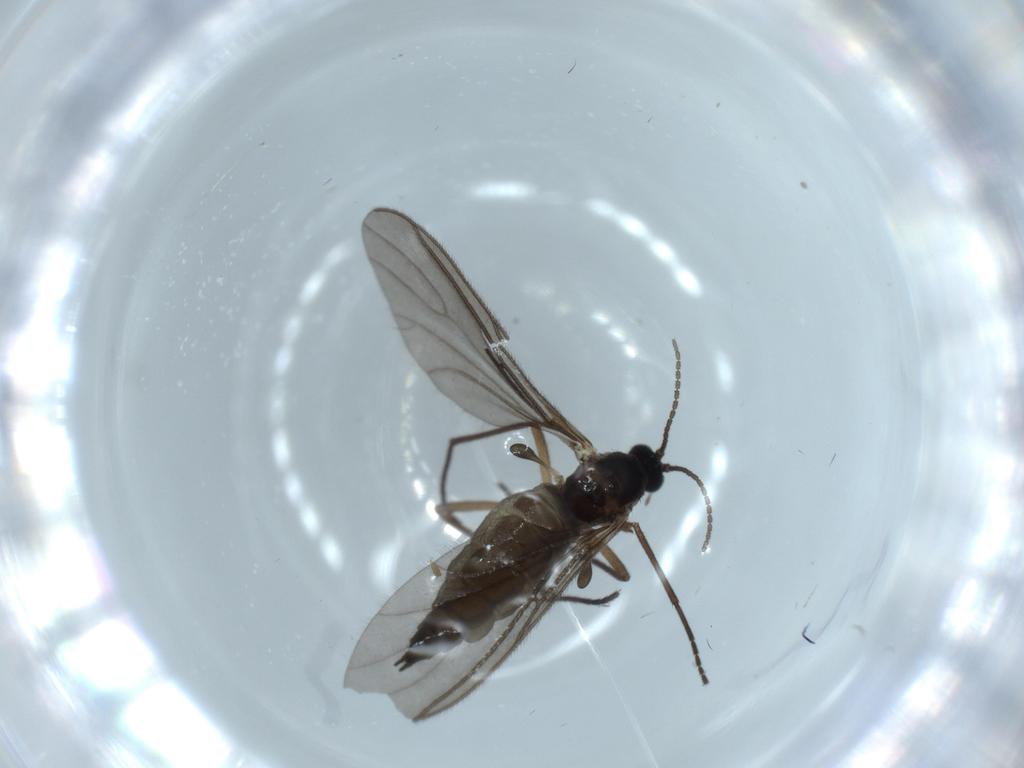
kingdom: Animalia
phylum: Arthropoda
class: Insecta
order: Diptera
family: Sciaridae
